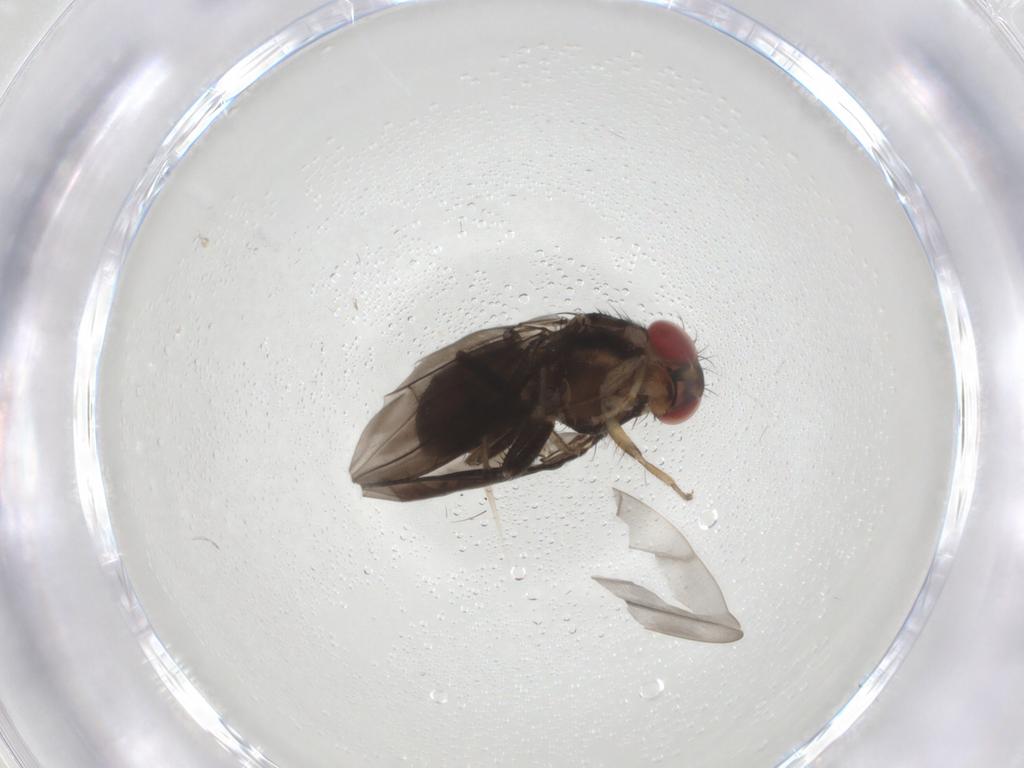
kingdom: Animalia
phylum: Arthropoda
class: Insecta
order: Diptera
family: Drosophilidae
